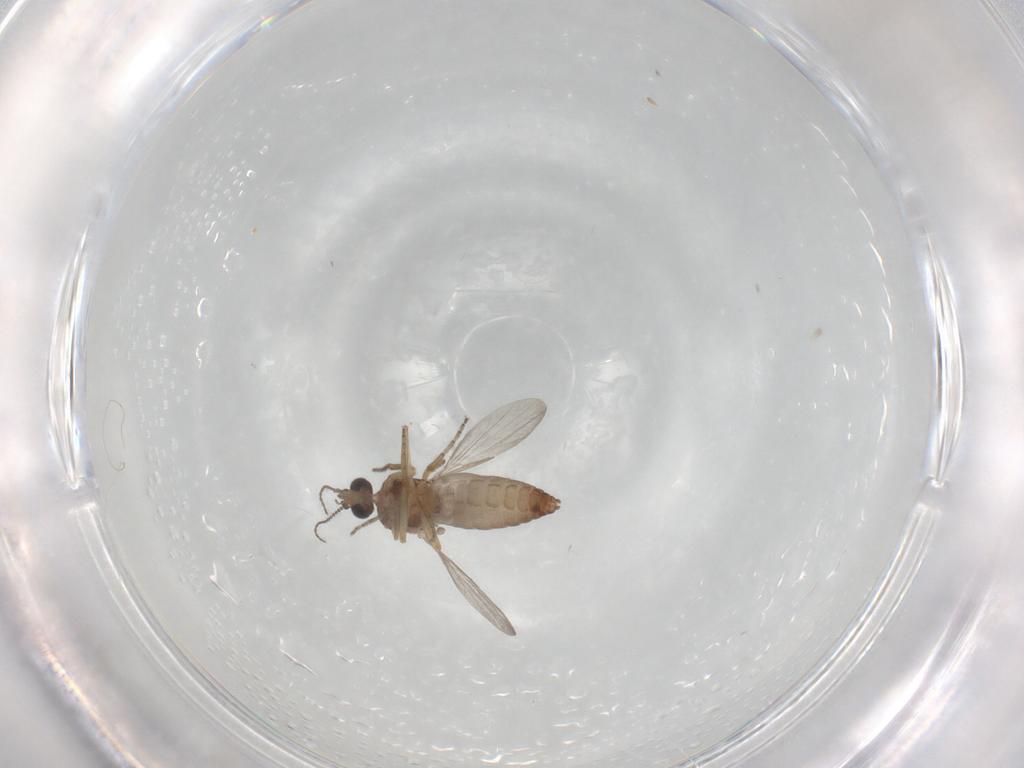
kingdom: Animalia
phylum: Arthropoda
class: Insecta
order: Diptera
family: Ceratopogonidae
